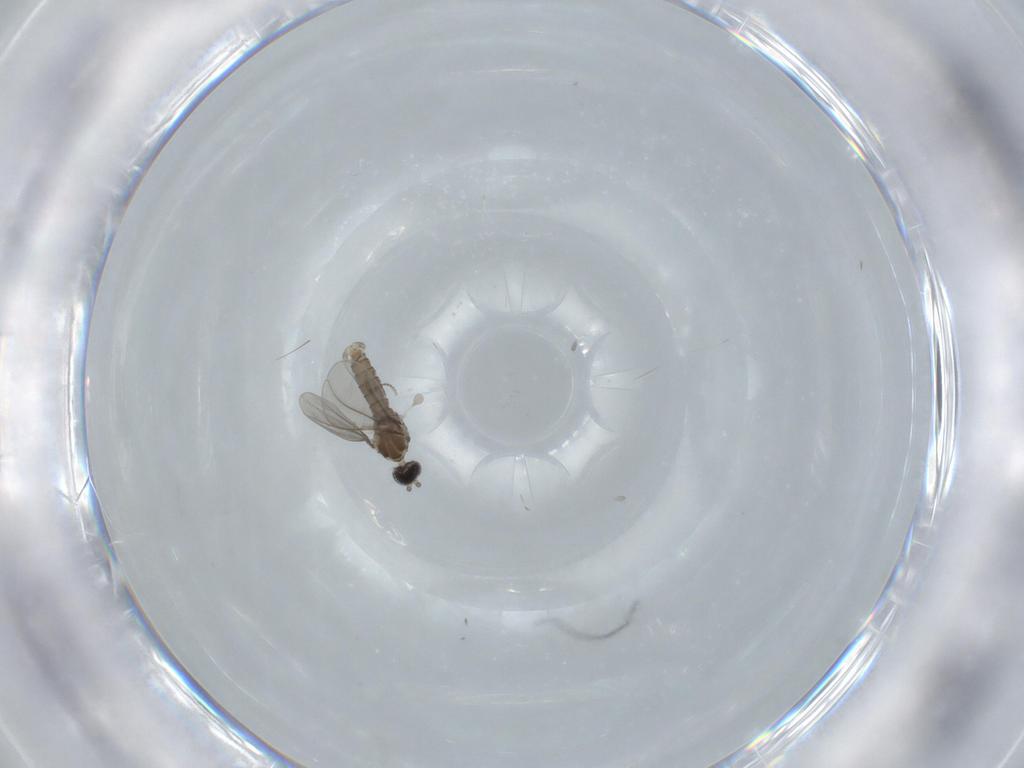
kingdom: Animalia
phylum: Arthropoda
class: Insecta
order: Diptera
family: Cecidomyiidae
